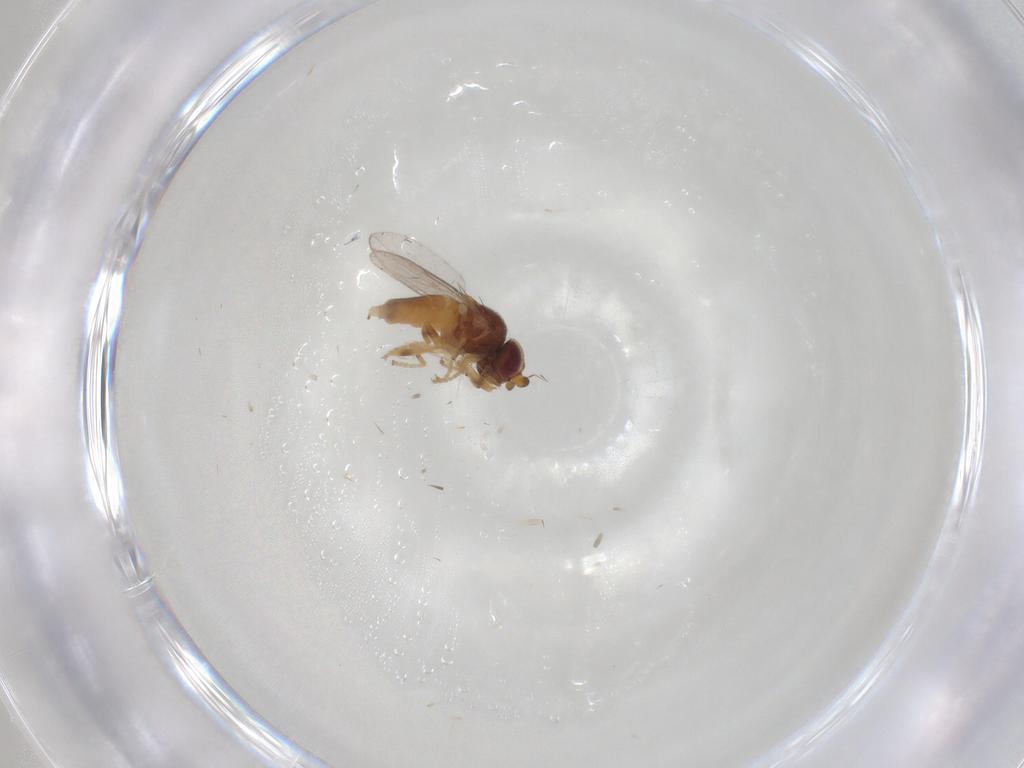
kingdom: Animalia
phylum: Arthropoda
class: Insecta
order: Diptera
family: Chloropidae
